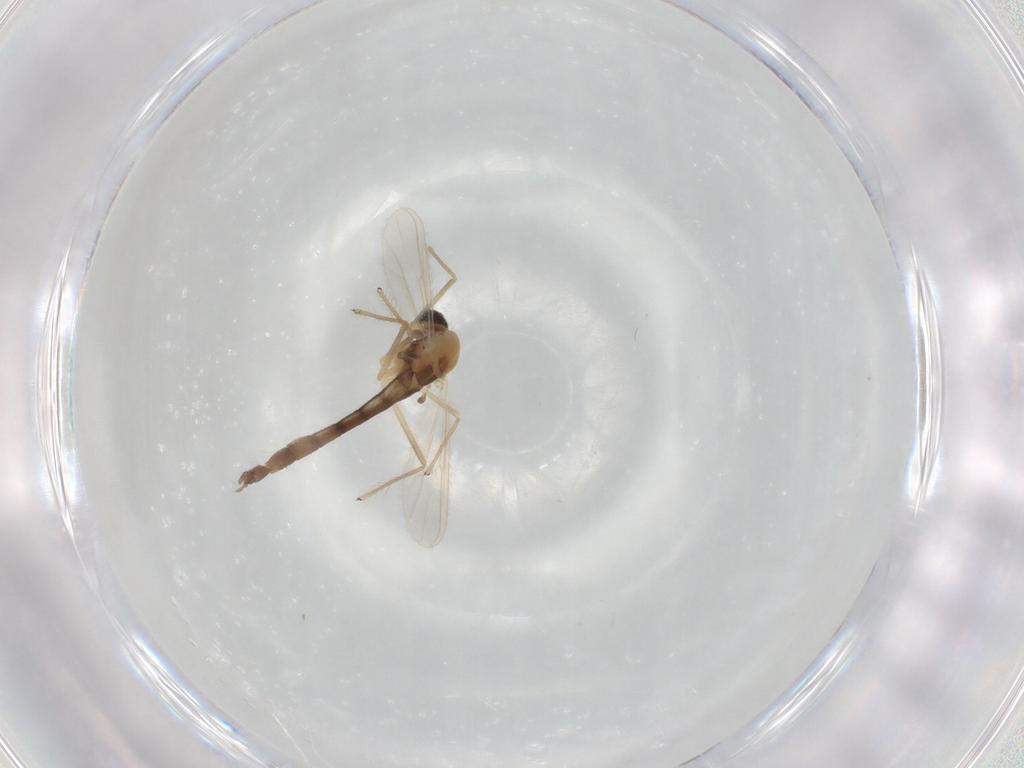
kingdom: Animalia
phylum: Arthropoda
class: Insecta
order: Diptera
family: Chironomidae
